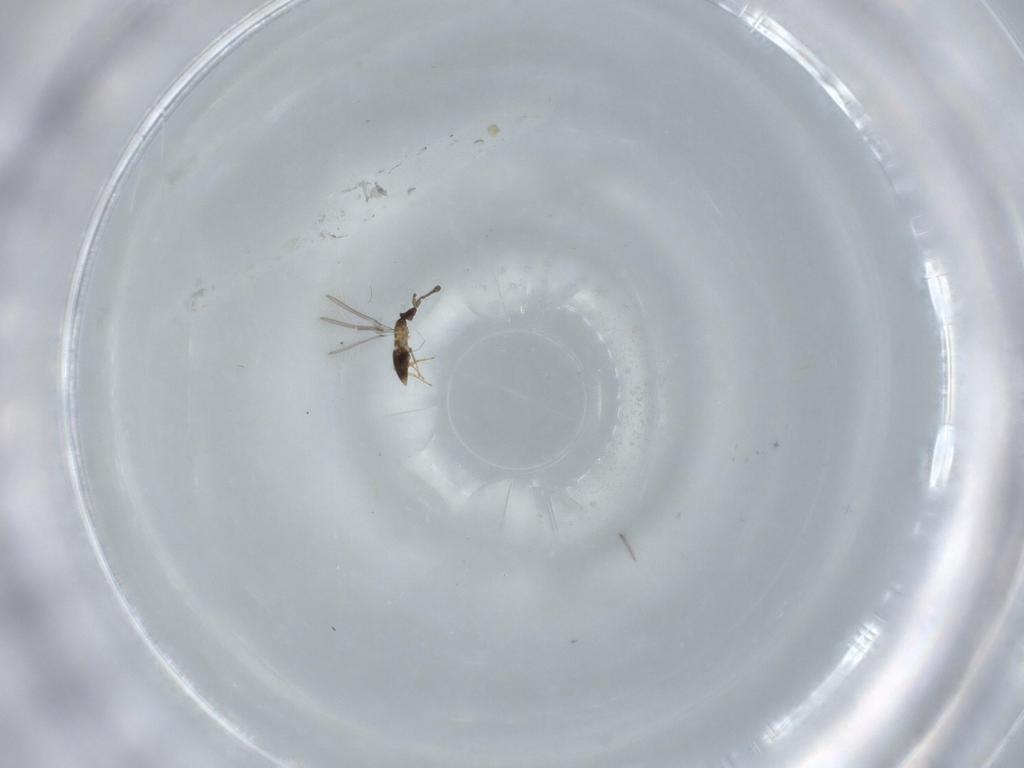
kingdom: Animalia
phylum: Arthropoda
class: Insecta
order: Hymenoptera
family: Mymaridae
